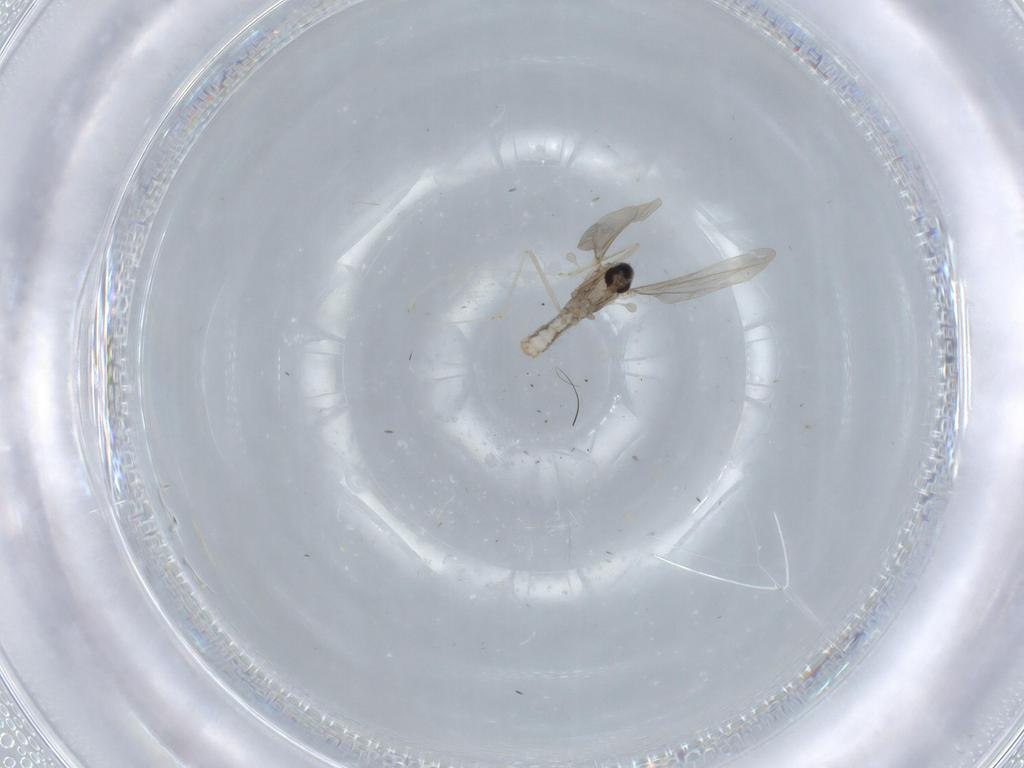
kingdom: Animalia
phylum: Arthropoda
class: Insecta
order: Diptera
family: Cecidomyiidae
